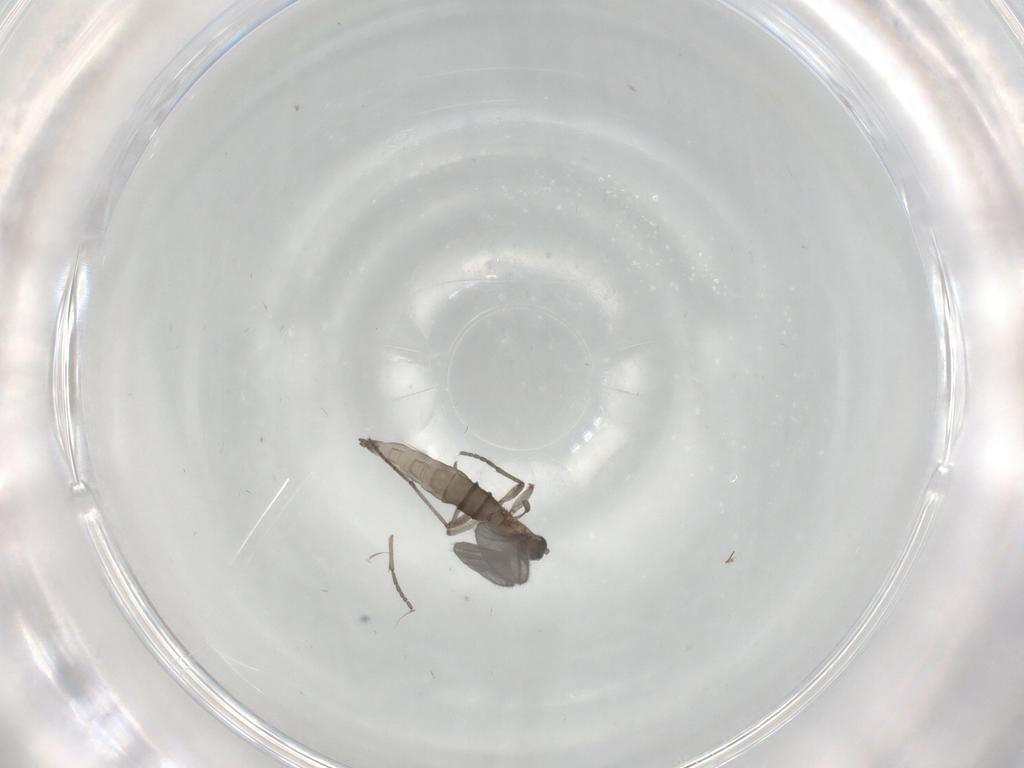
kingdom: Animalia
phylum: Arthropoda
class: Insecta
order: Diptera
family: Sciaridae
